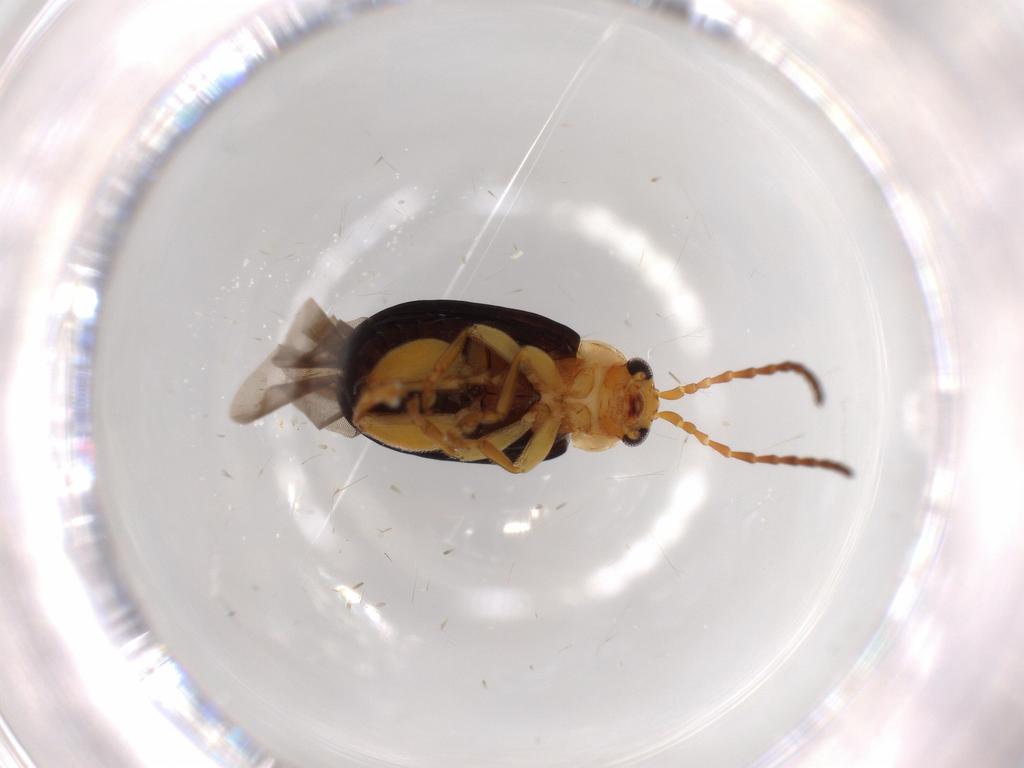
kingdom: Animalia
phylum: Arthropoda
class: Insecta
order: Coleoptera
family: Chrysomelidae
